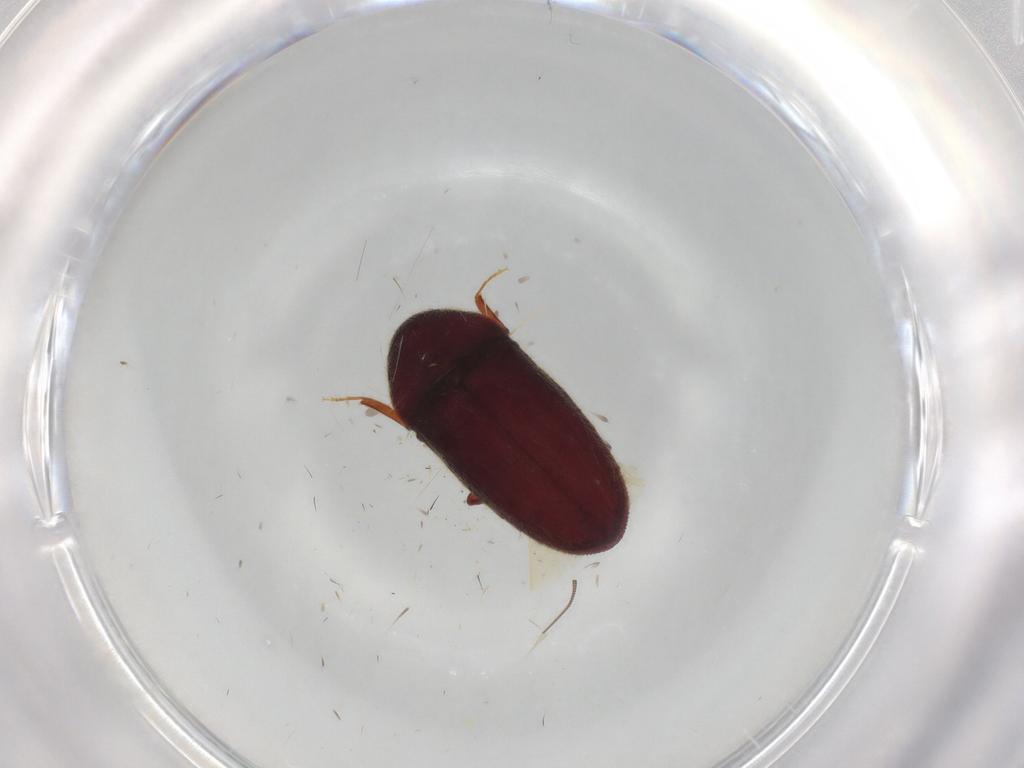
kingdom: Animalia
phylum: Arthropoda
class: Insecta
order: Coleoptera
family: Throscidae
